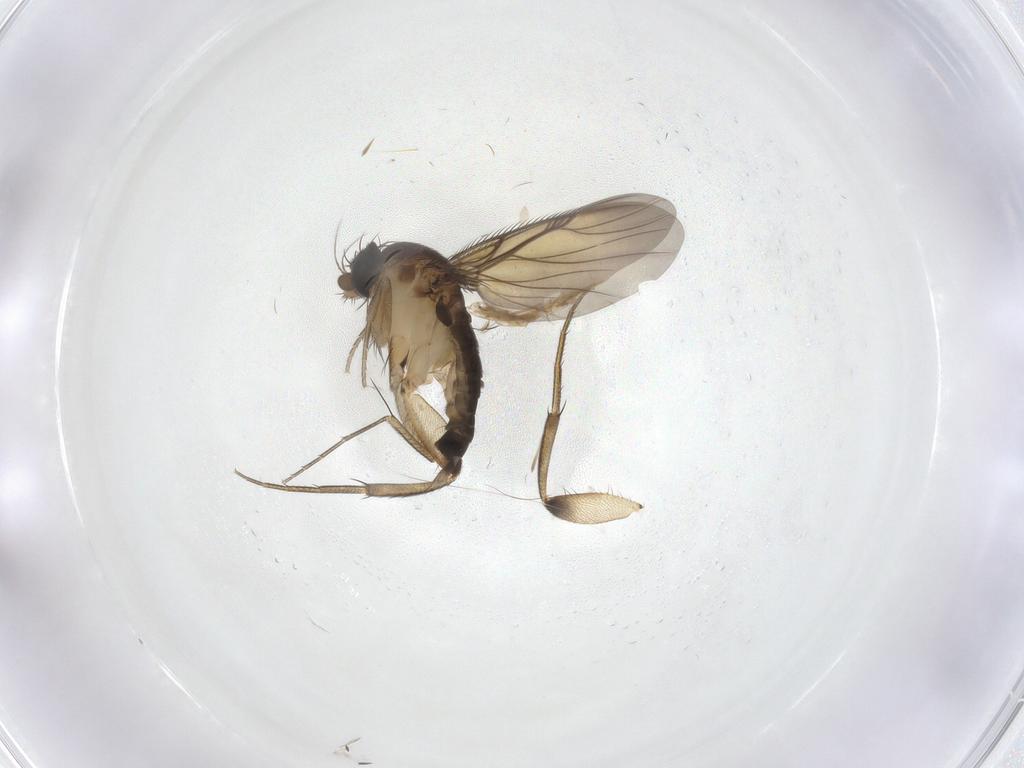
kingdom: Animalia
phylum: Arthropoda
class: Insecta
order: Diptera
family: Phoridae
